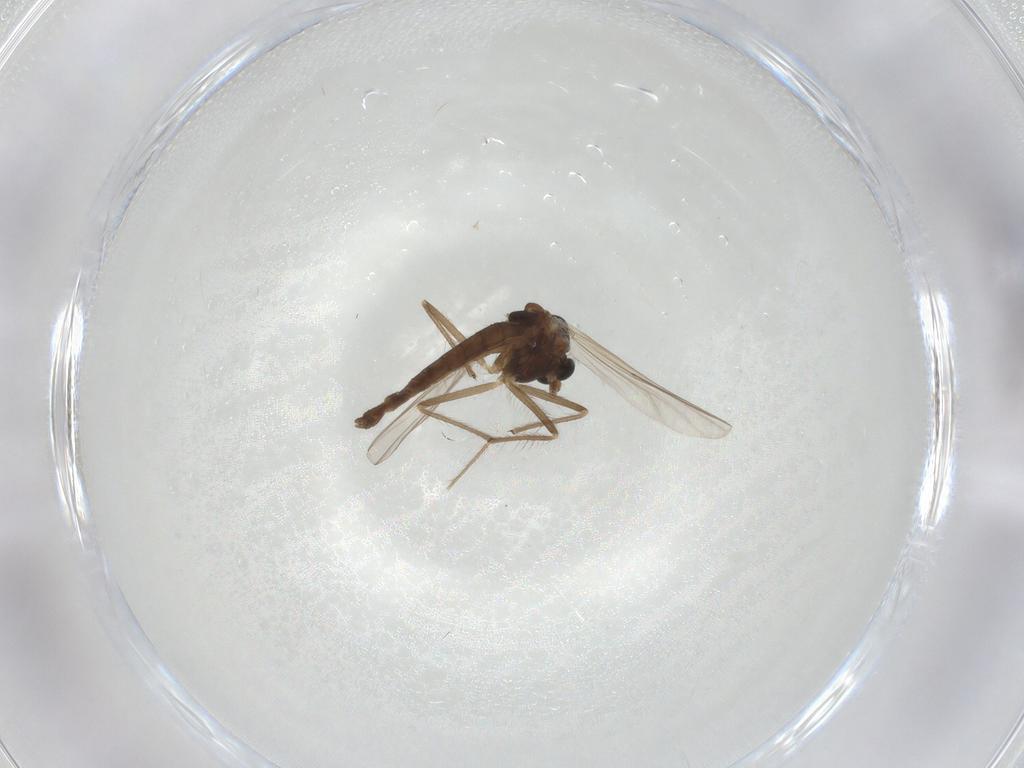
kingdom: Animalia
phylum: Arthropoda
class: Insecta
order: Diptera
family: Chironomidae
